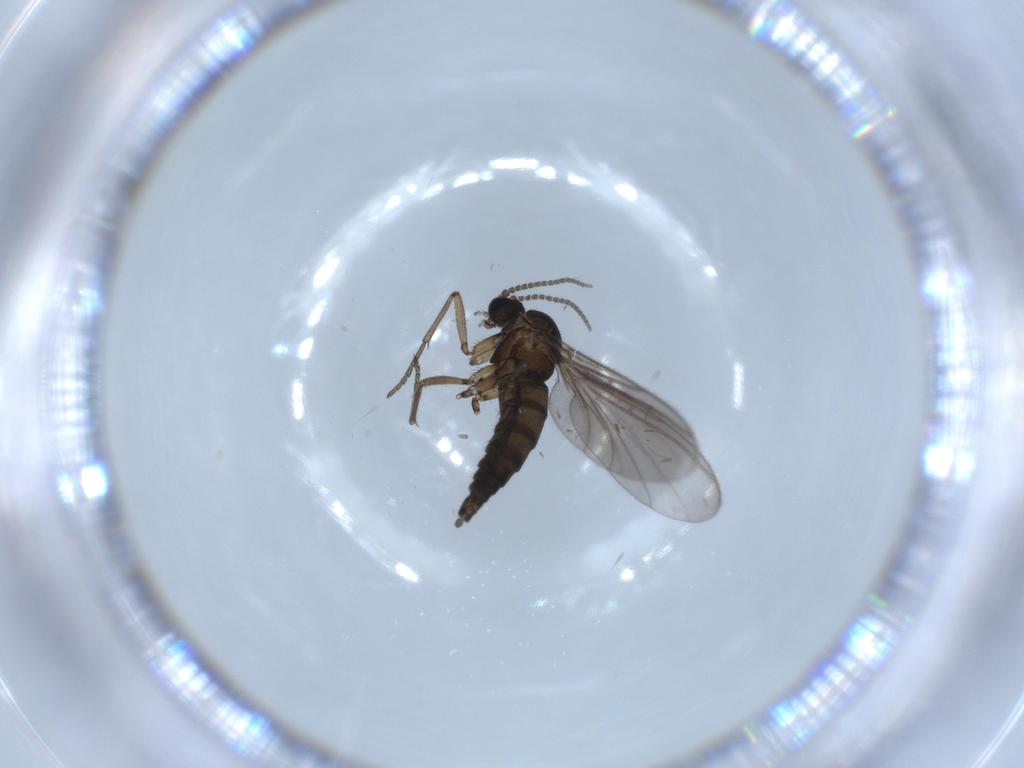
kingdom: Animalia
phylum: Arthropoda
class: Insecta
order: Diptera
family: Sciaridae
